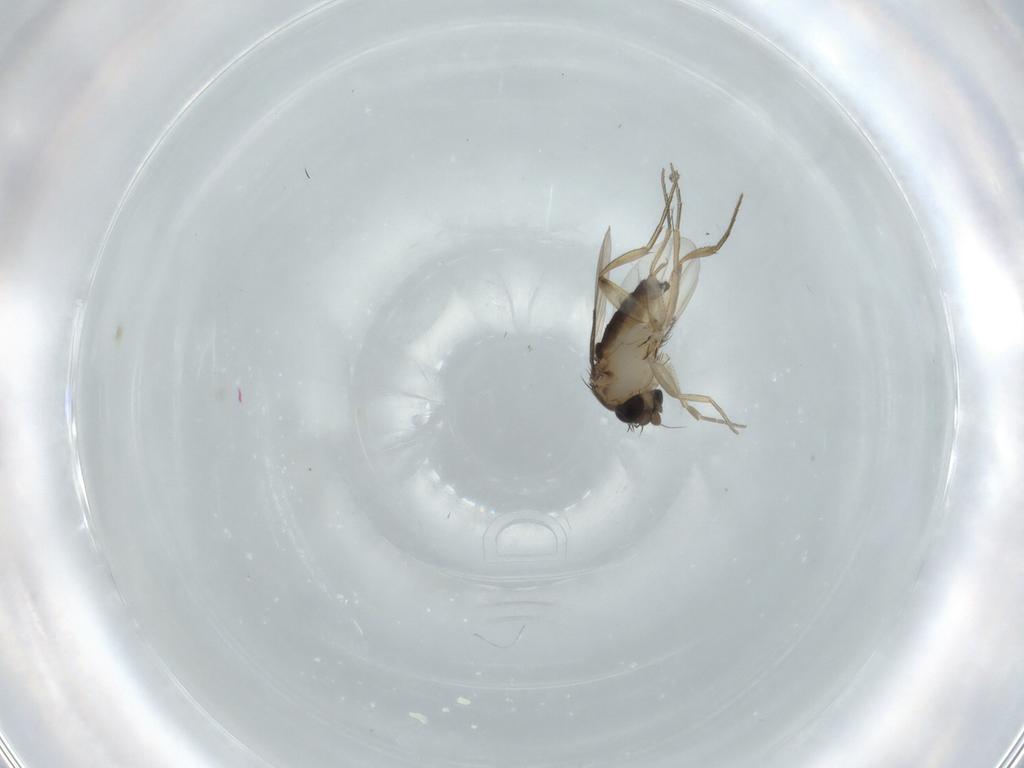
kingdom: Animalia
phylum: Arthropoda
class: Insecta
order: Diptera
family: Phoridae
